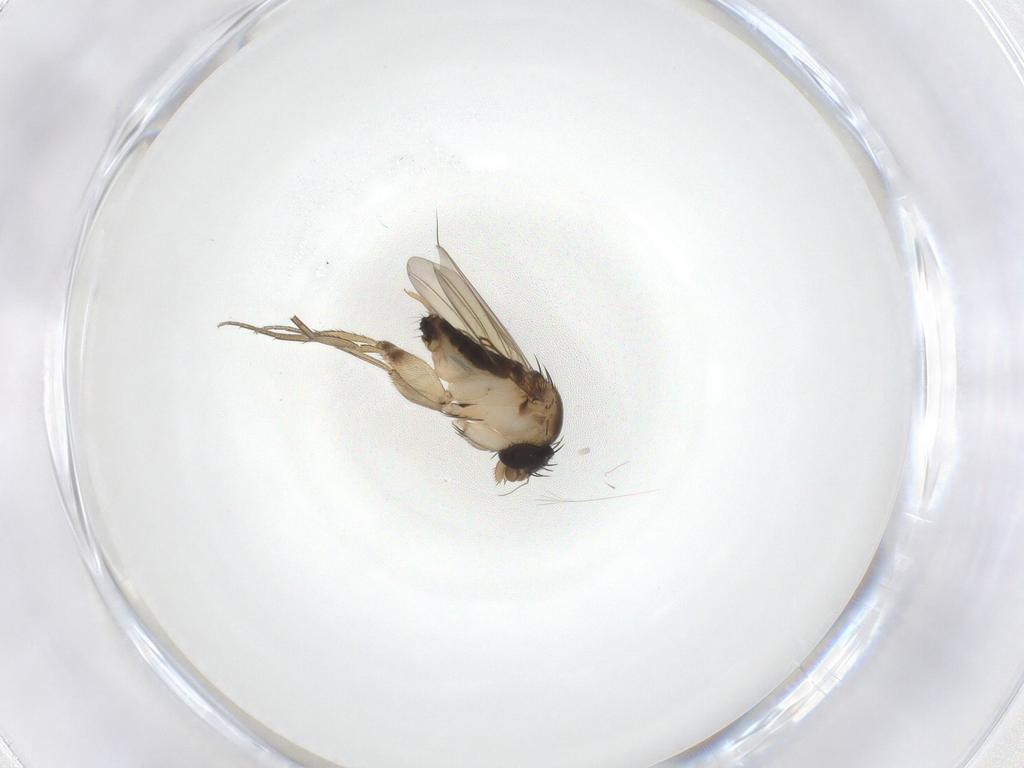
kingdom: Animalia
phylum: Arthropoda
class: Insecta
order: Diptera
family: Phoridae
